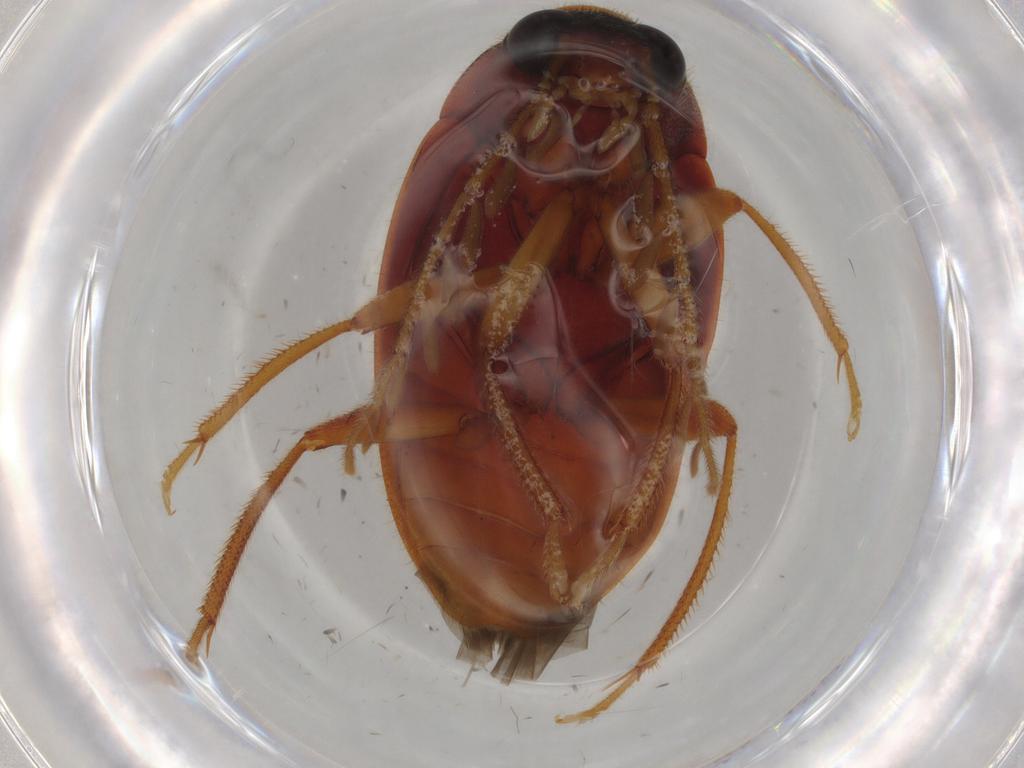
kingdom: Animalia
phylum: Arthropoda
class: Insecta
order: Coleoptera
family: Ptilodactylidae
